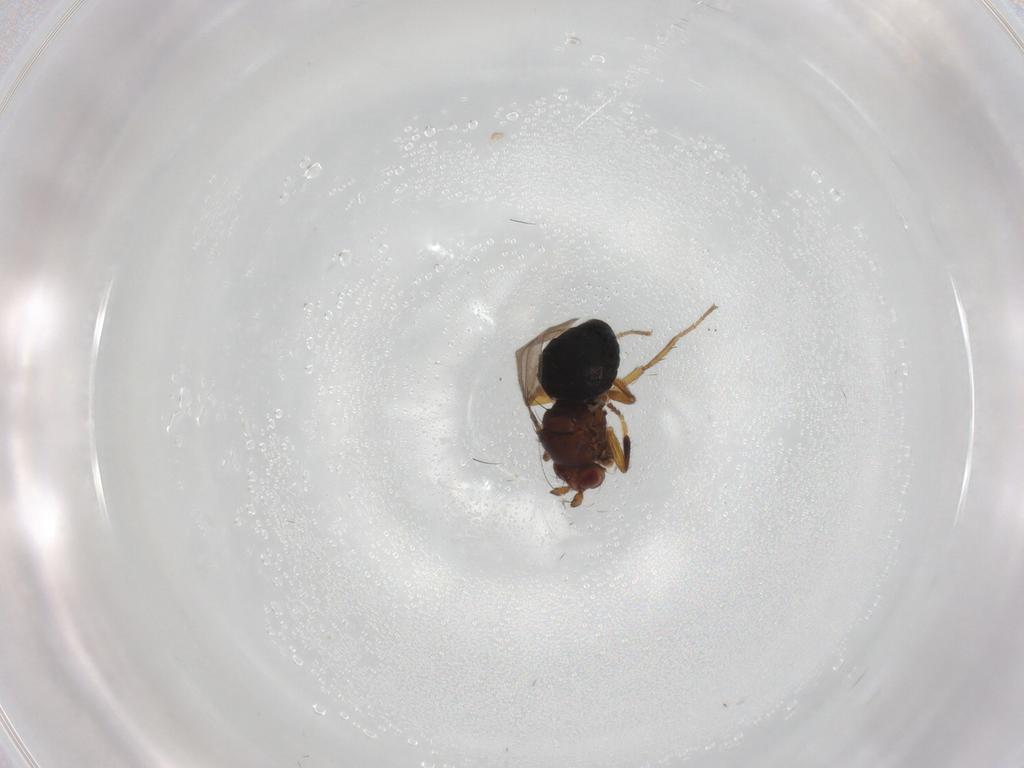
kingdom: Animalia
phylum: Arthropoda
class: Insecta
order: Diptera
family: Sphaeroceridae
